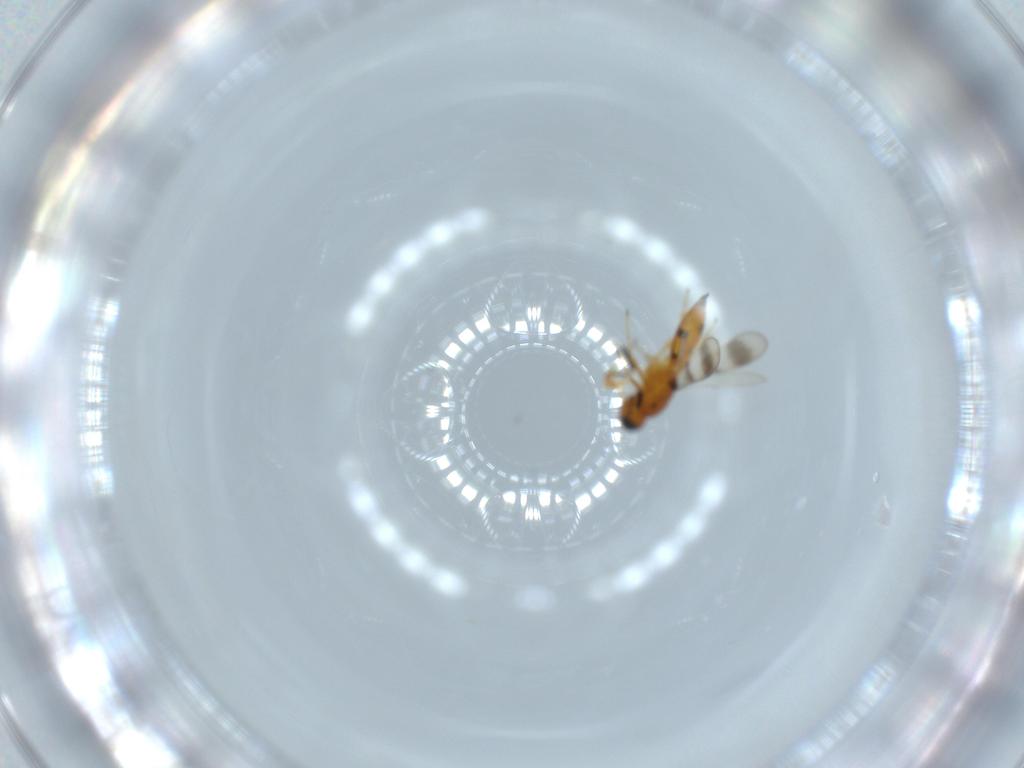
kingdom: Animalia
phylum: Arthropoda
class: Insecta
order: Hymenoptera
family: Scelionidae
